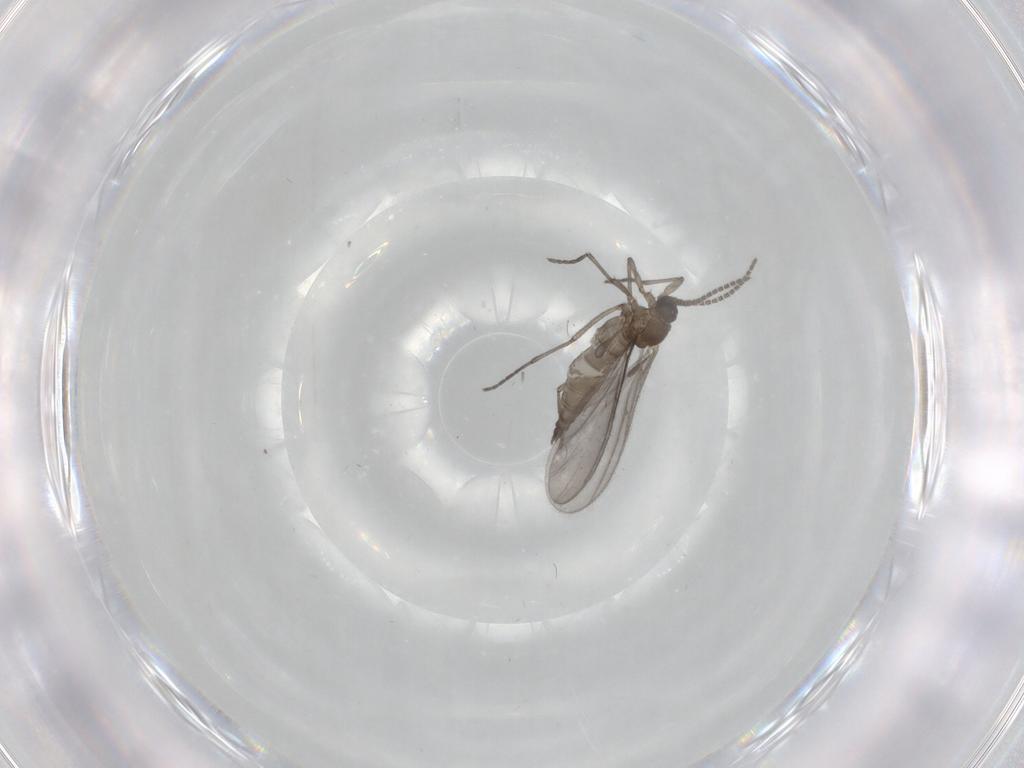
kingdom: Animalia
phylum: Arthropoda
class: Insecta
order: Diptera
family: Sciaridae
